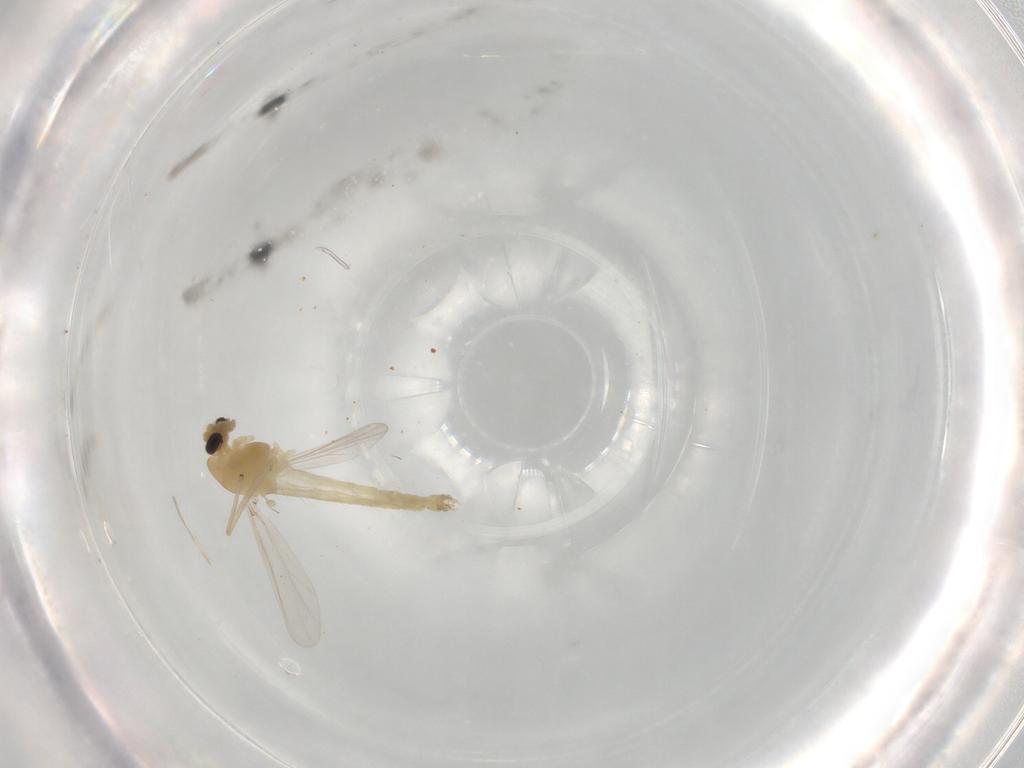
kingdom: Animalia
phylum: Arthropoda
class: Insecta
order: Diptera
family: Chironomidae
